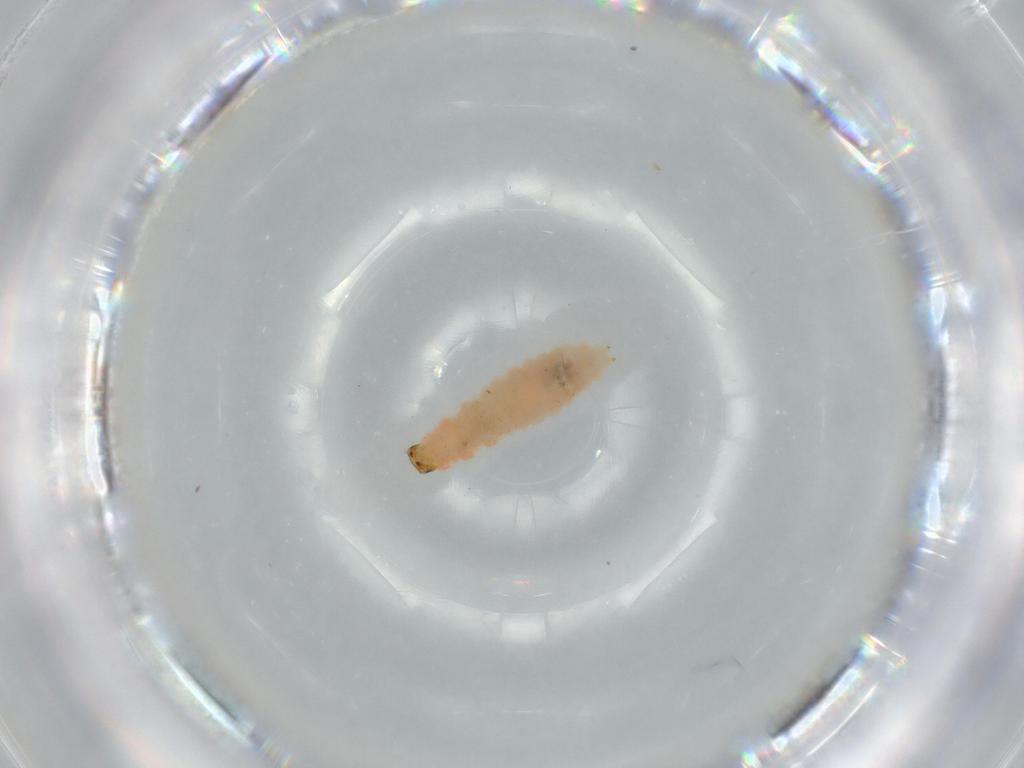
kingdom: Animalia
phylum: Arthropoda
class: Insecta
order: Coleoptera
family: Melyridae
